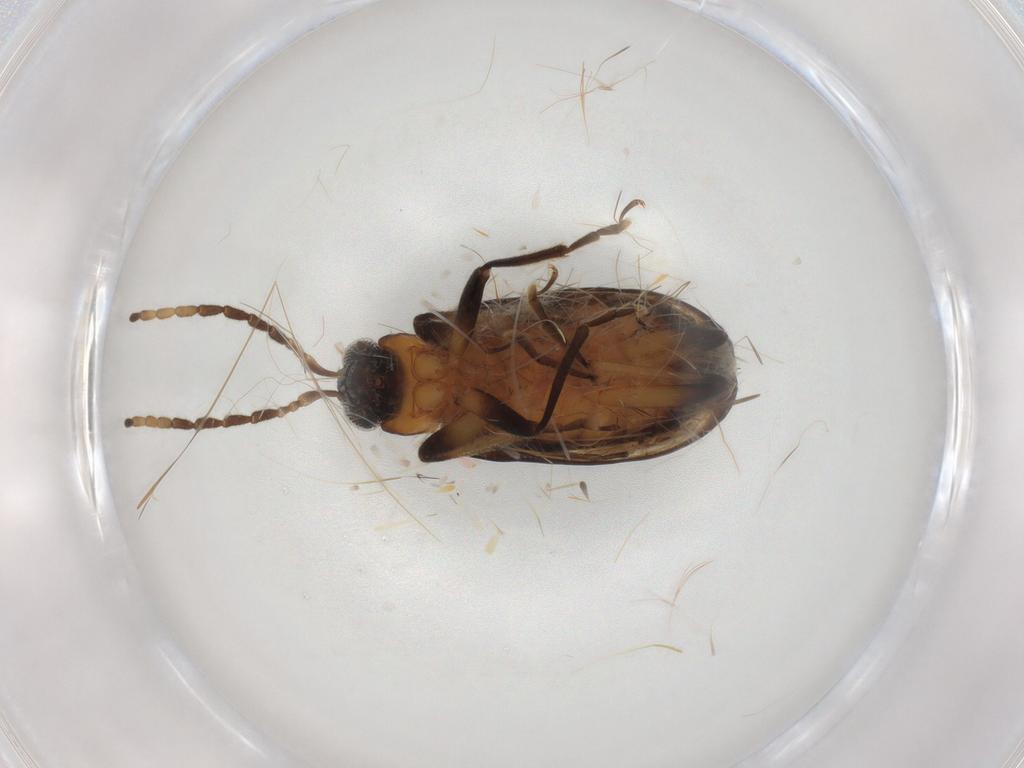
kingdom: Animalia
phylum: Arthropoda
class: Insecta
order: Coleoptera
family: Chrysomelidae
